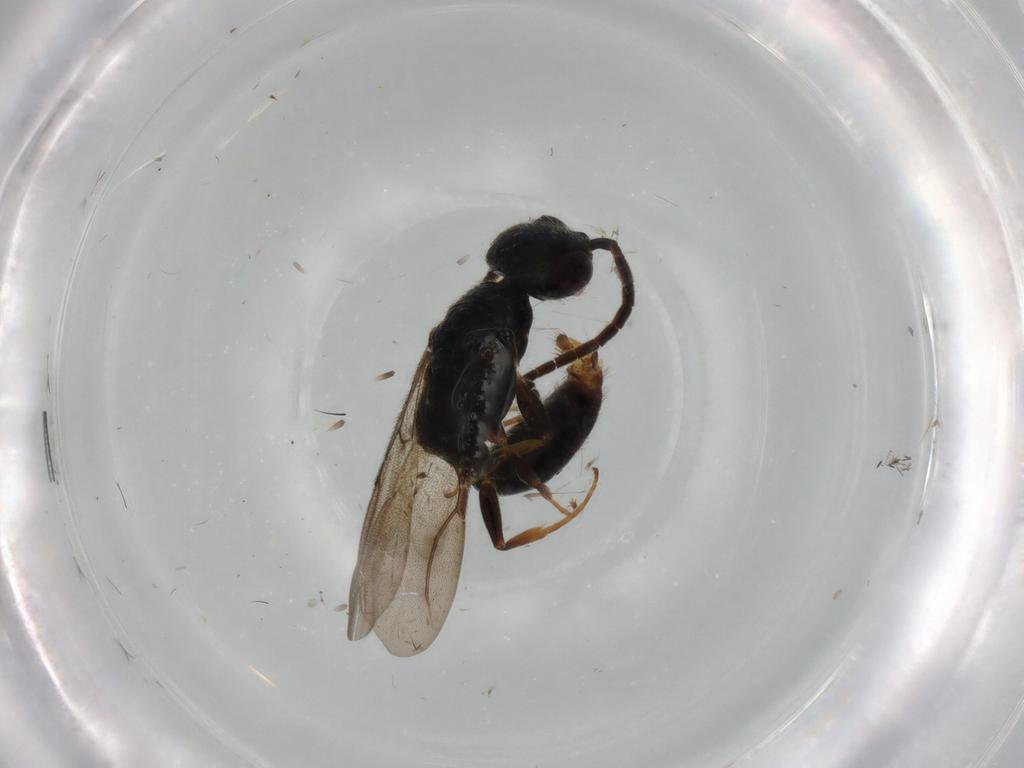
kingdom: Animalia
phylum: Arthropoda
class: Insecta
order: Hymenoptera
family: Bethylidae
